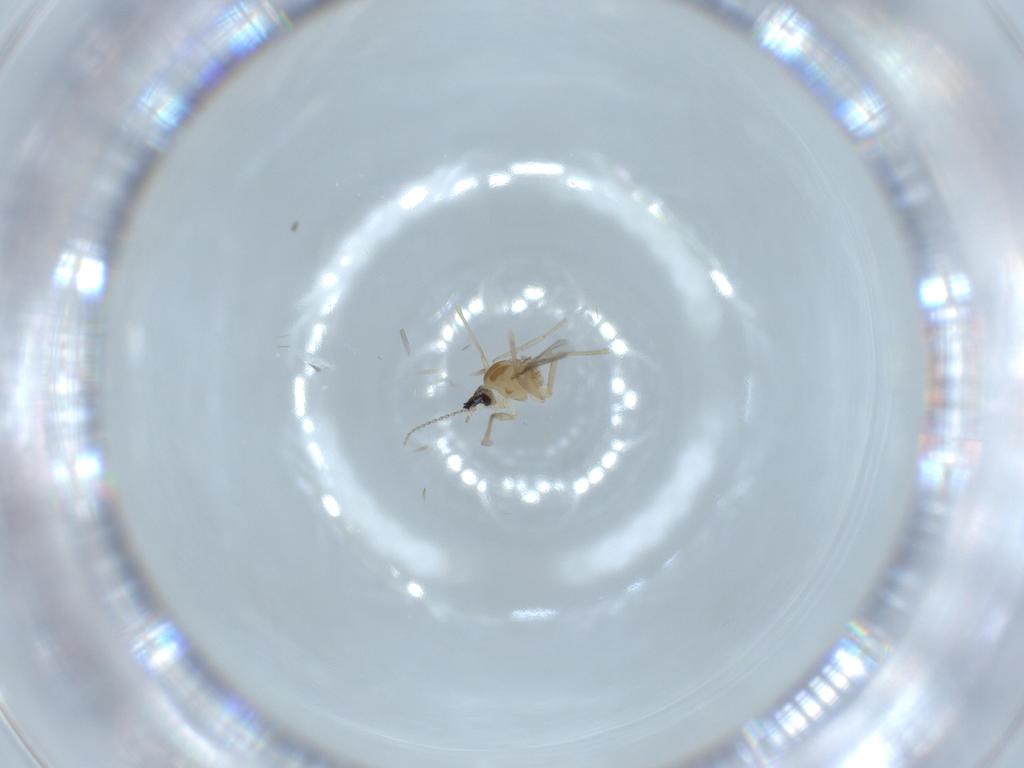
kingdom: Animalia
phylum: Arthropoda
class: Insecta
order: Diptera
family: Cecidomyiidae
